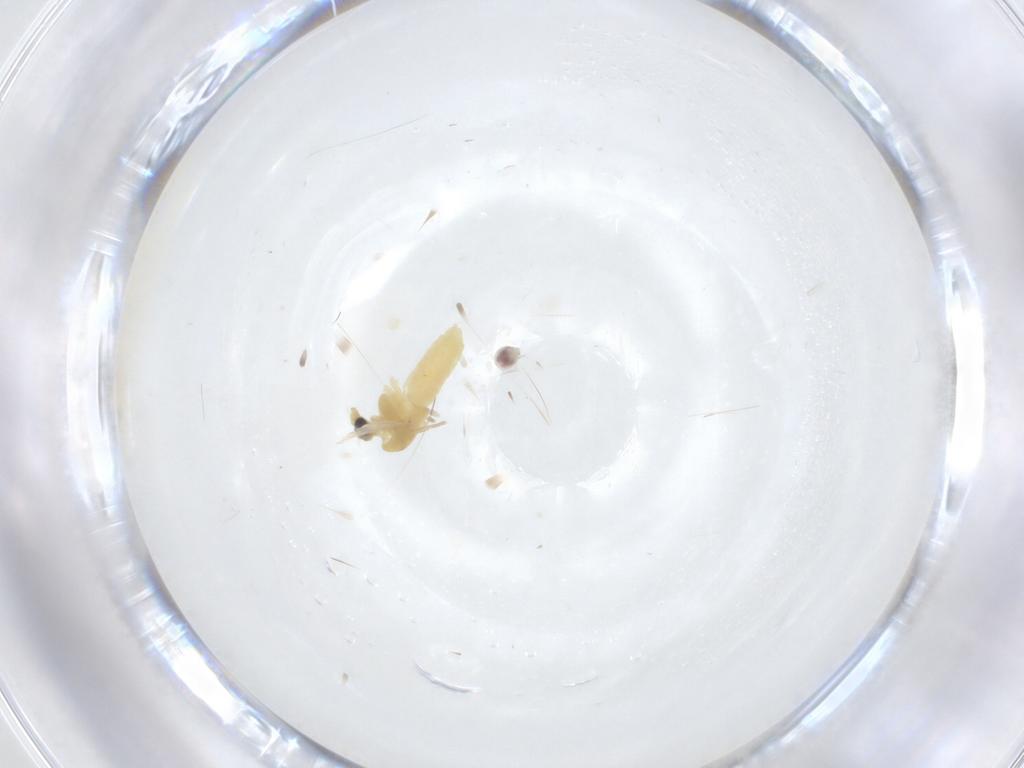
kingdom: Animalia
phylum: Arthropoda
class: Insecta
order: Diptera
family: Chironomidae
